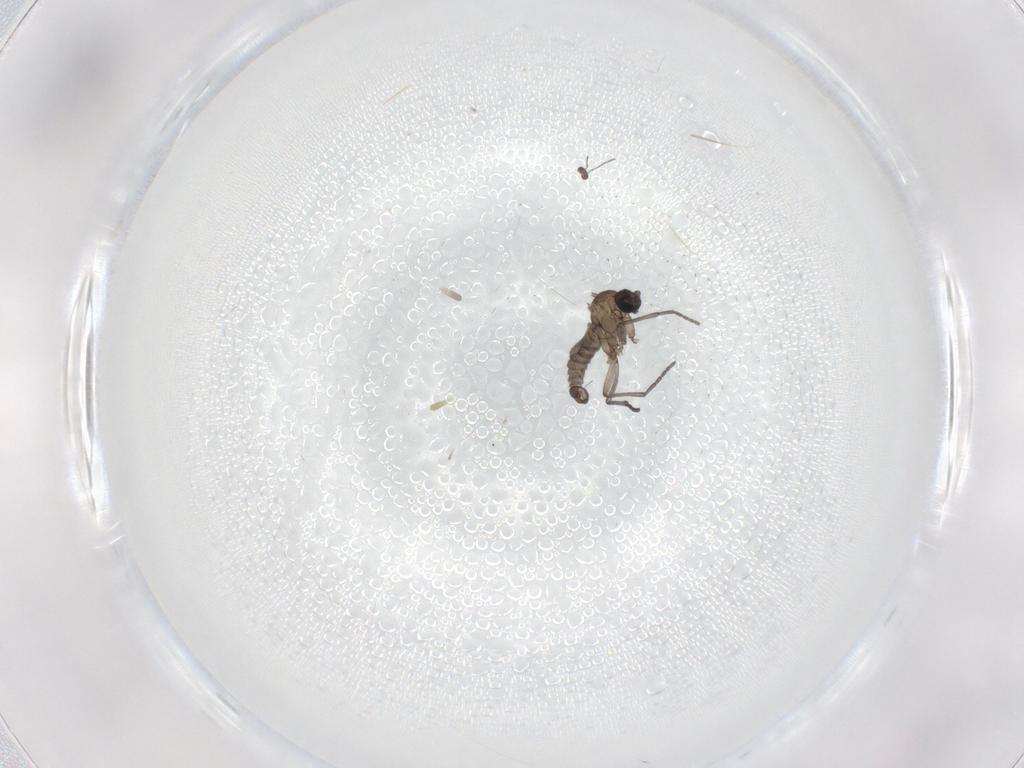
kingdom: Animalia
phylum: Arthropoda
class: Insecta
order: Diptera
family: Sciaridae
